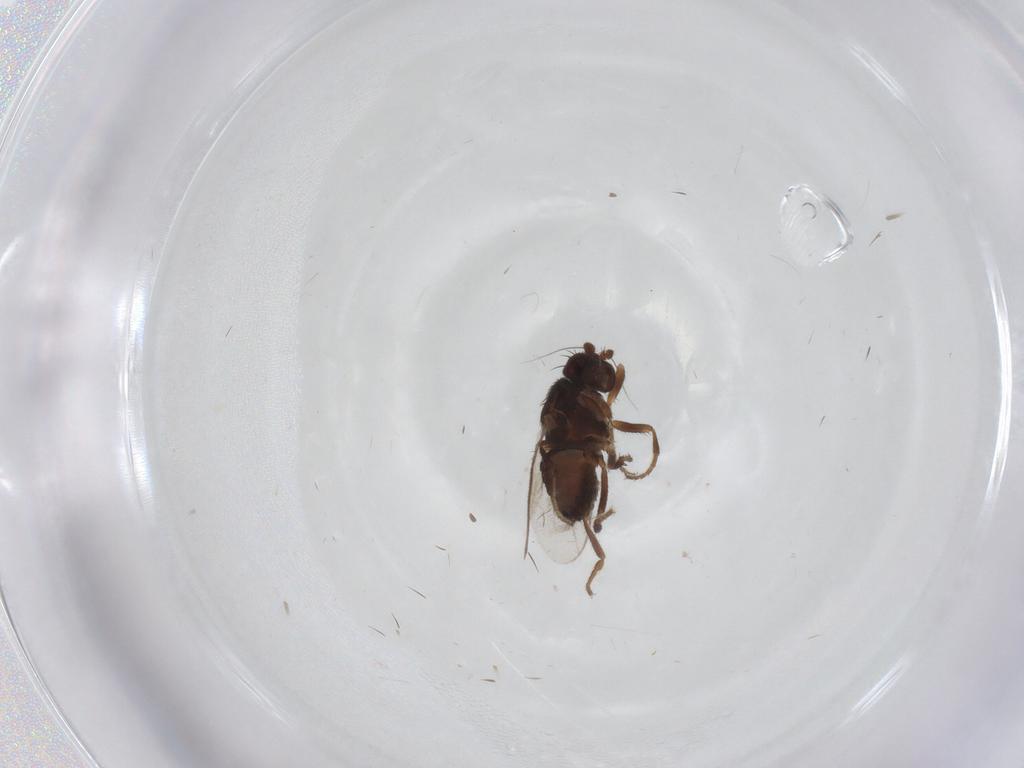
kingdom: Animalia
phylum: Arthropoda
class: Insecta
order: Diptera
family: Sphaeroceridae
